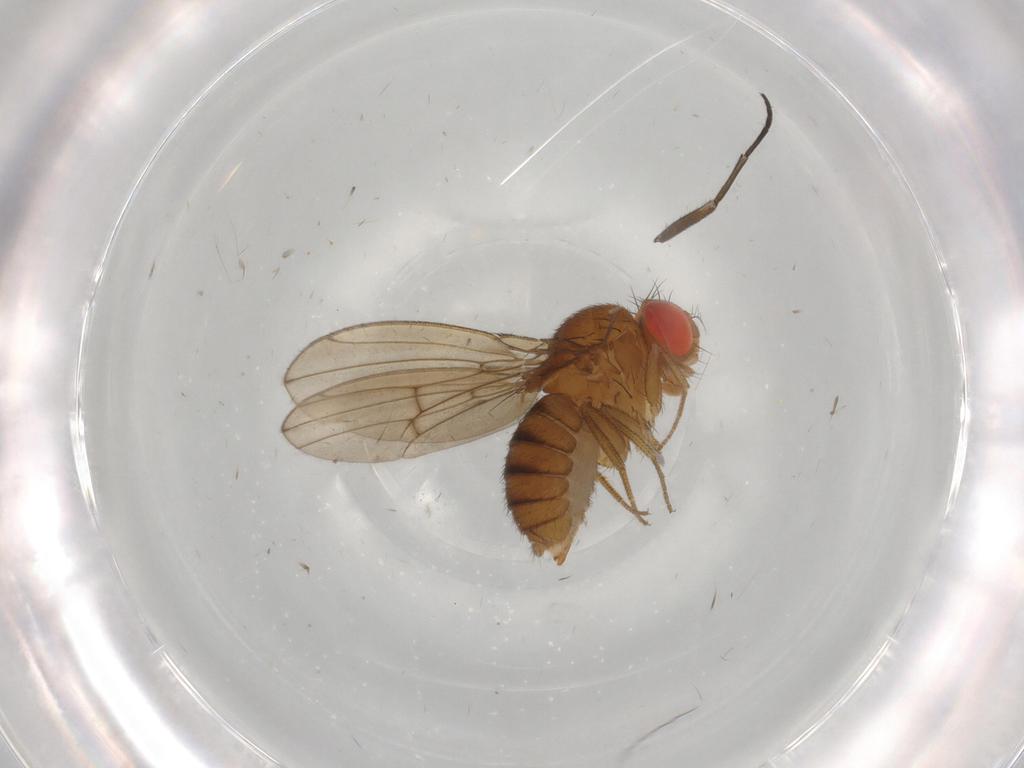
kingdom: Animalia
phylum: Arthropoda
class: Insecta
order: Diptera
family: Drosophilidae
